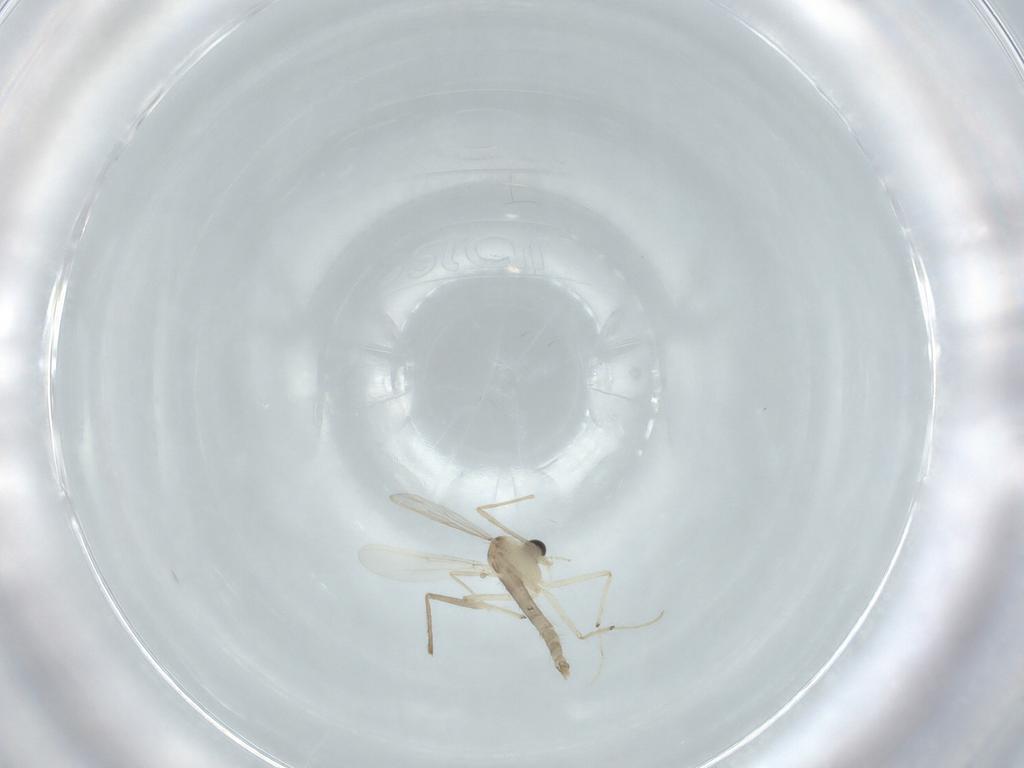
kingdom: Animalia
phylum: Arthropoda
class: Insecta
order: Diptera
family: Chironomidae
